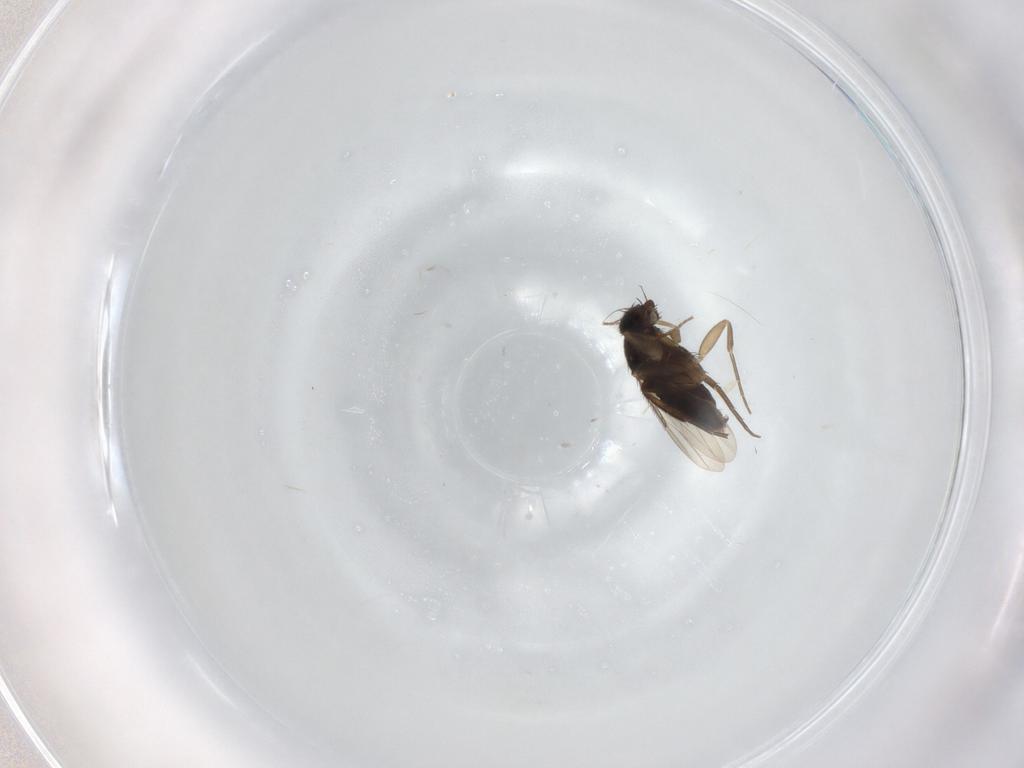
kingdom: Animalia
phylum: Arthropoda
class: Insecta
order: Diptera
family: Phoridae
